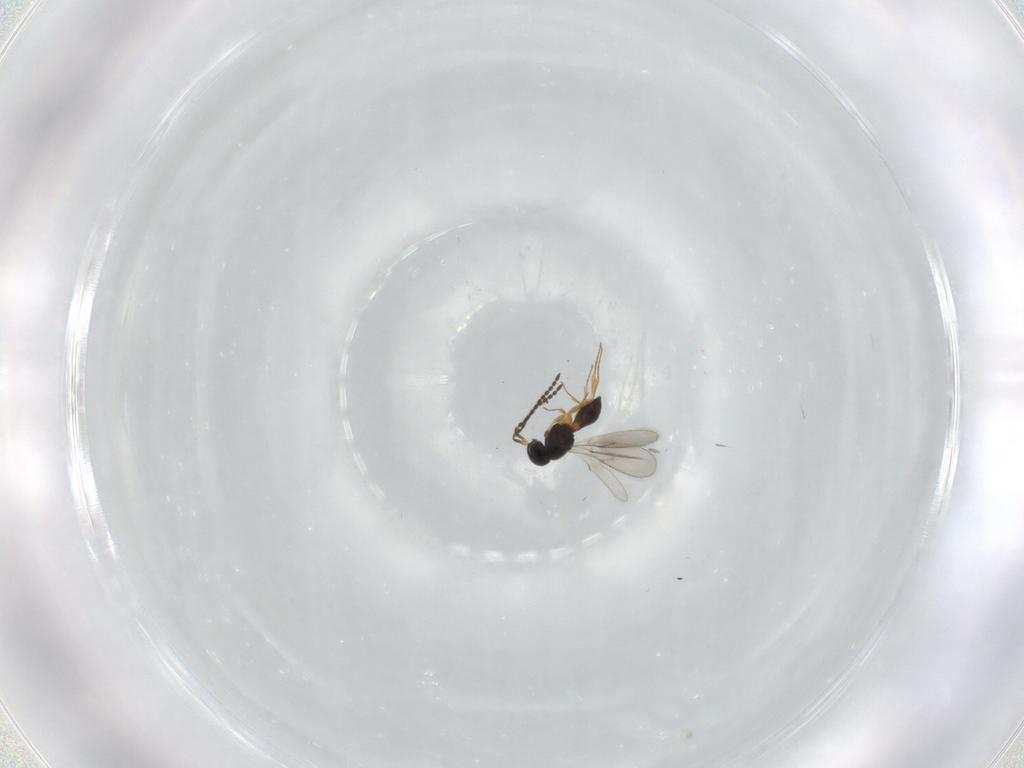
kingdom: Animalia
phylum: Arthropoda
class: Insecta
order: Hymenoptera
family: Scelionidae
